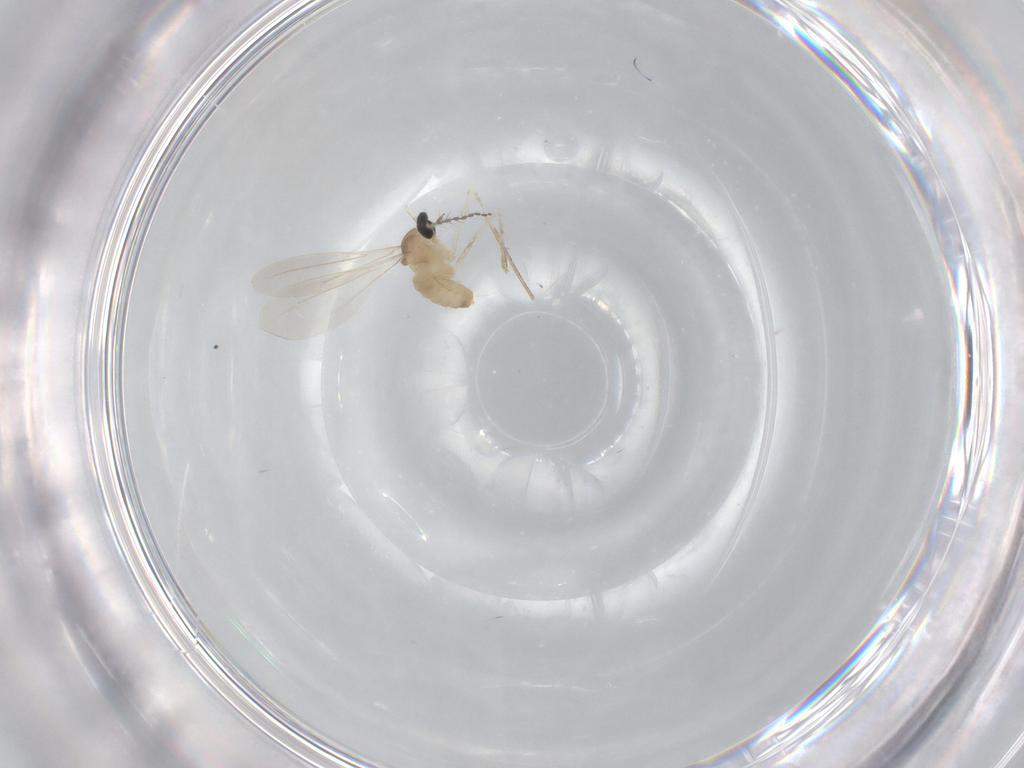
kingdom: Animalia
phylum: Arthropoda
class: Insecta
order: Diptera
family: Cecidomyiidae
